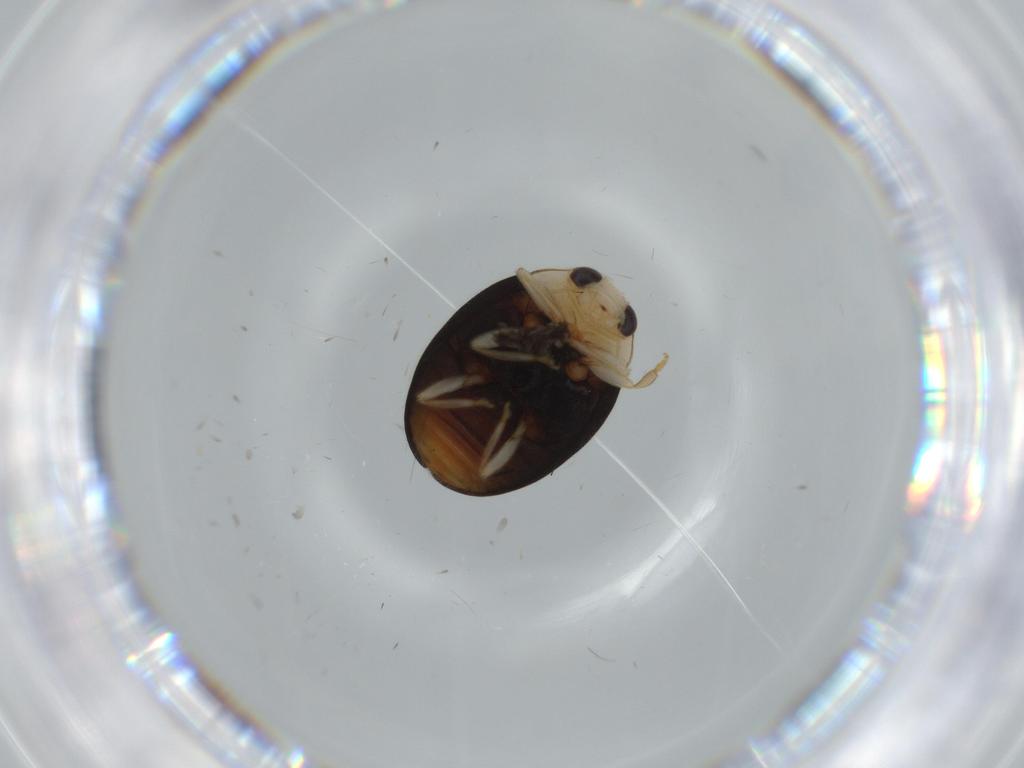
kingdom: Animalia
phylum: Arthropoda
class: Insecta
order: Coleoptera
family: Coccinellidae
